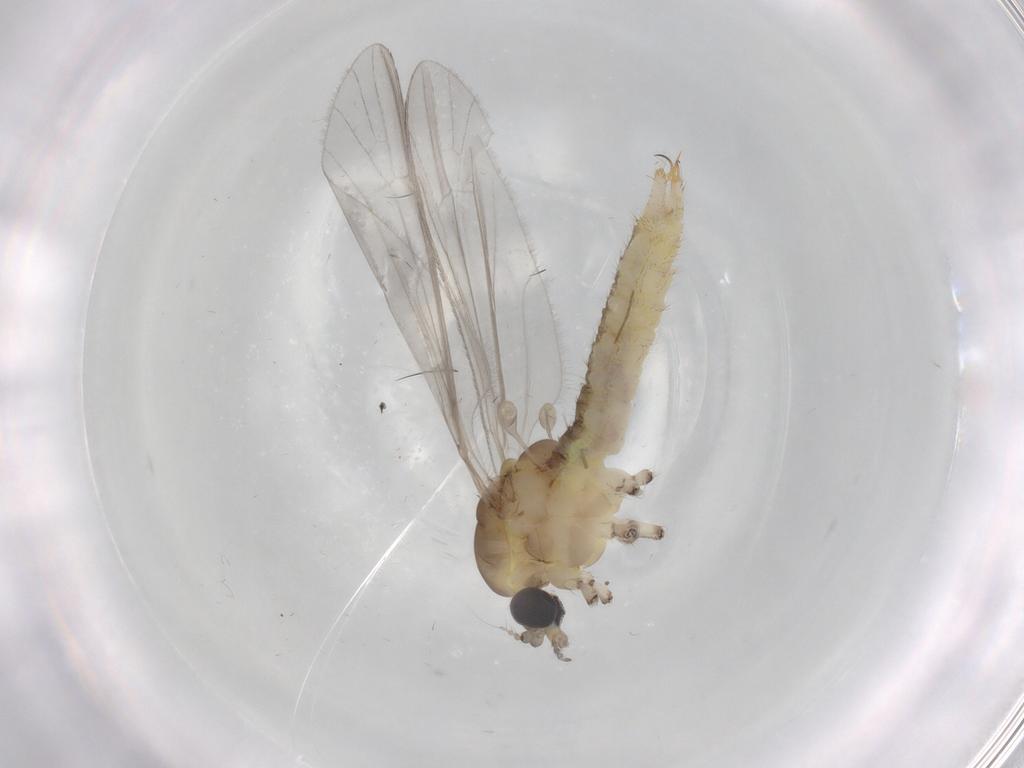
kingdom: Animalia
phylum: Arthropoda
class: Insecta
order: Diptera
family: Limoniidae
